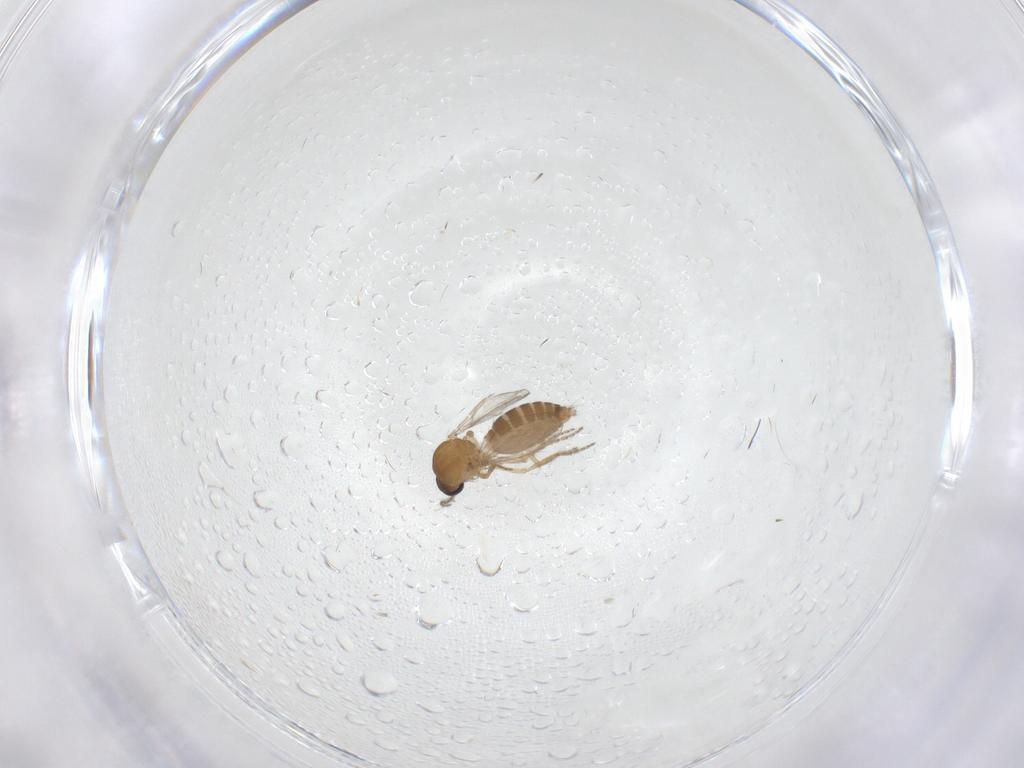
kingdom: Animalia
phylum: Arthropoda
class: Insecta
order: Diptera
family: Ceratopogonidae
